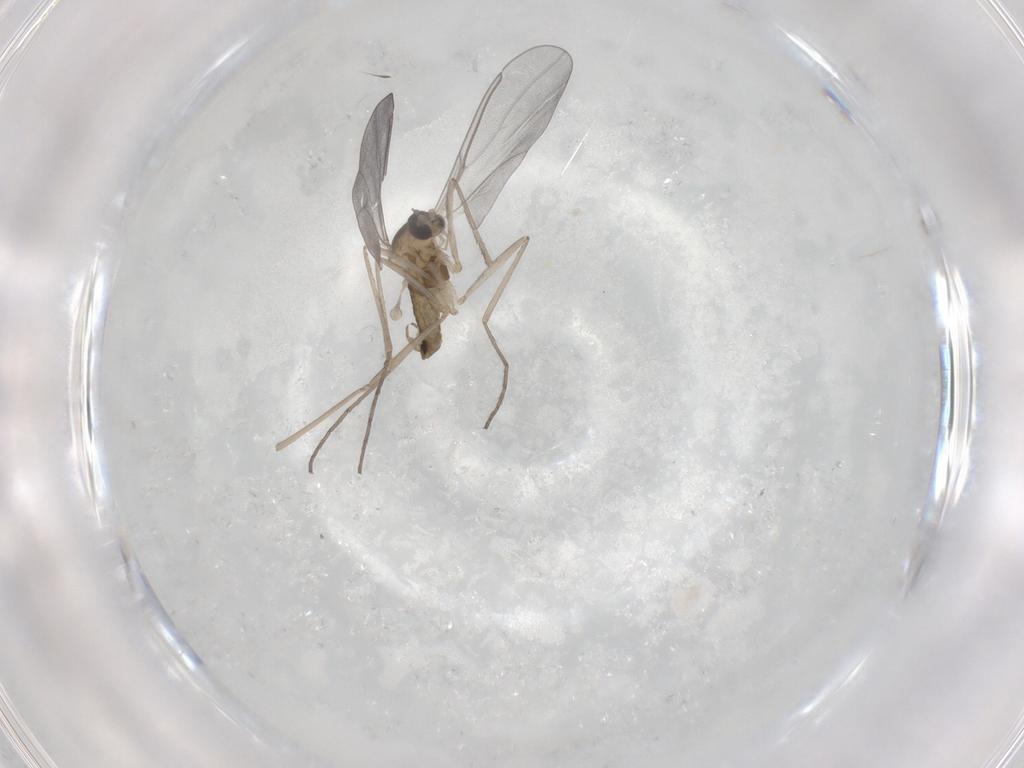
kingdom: Animalia
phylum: Arthropoda
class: Insecta
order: Diptera
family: Cecidomyiidae
